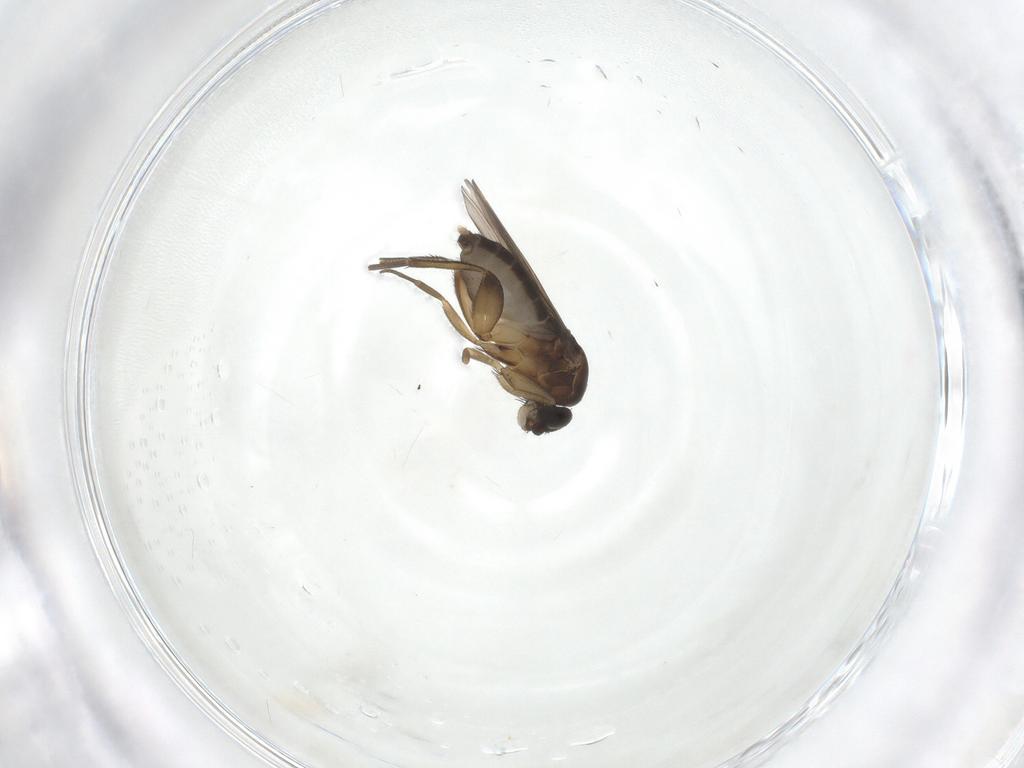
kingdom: Animalia
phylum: Arthropoda
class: Insecta
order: Diptera
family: Phoridae
